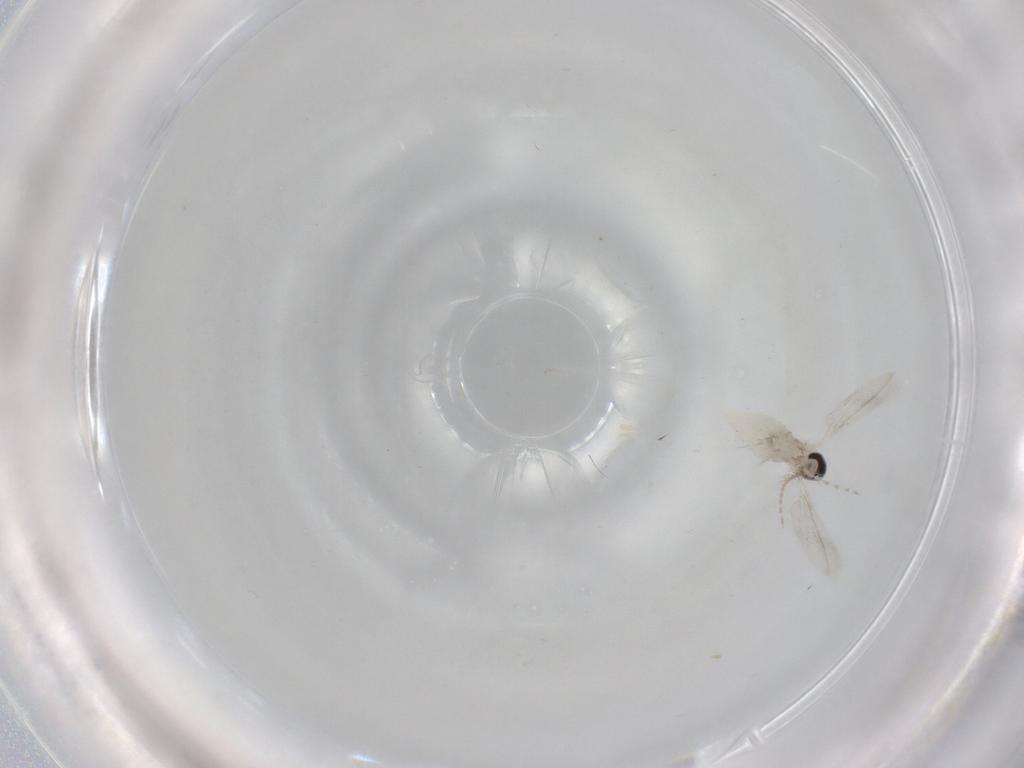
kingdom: Animalia
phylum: Arthropoda
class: Insecta
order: Diptera
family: Cecidomyiidae
